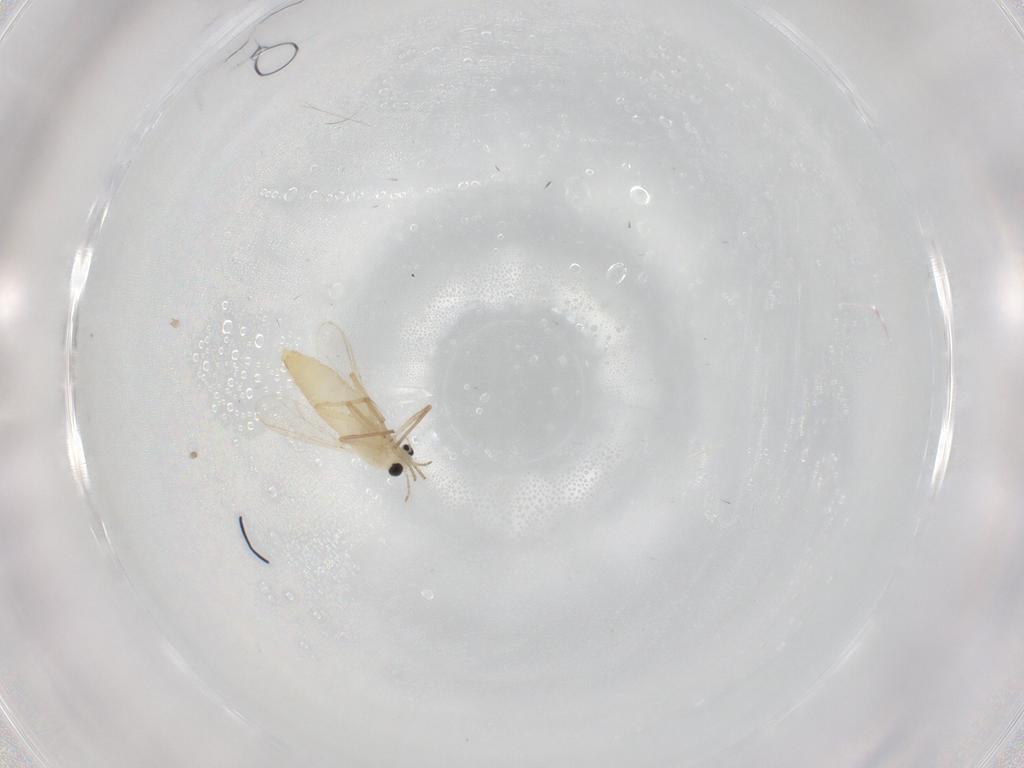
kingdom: Animalia
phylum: Arthropoda
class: Insecta
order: Diptera
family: Chironomidae
